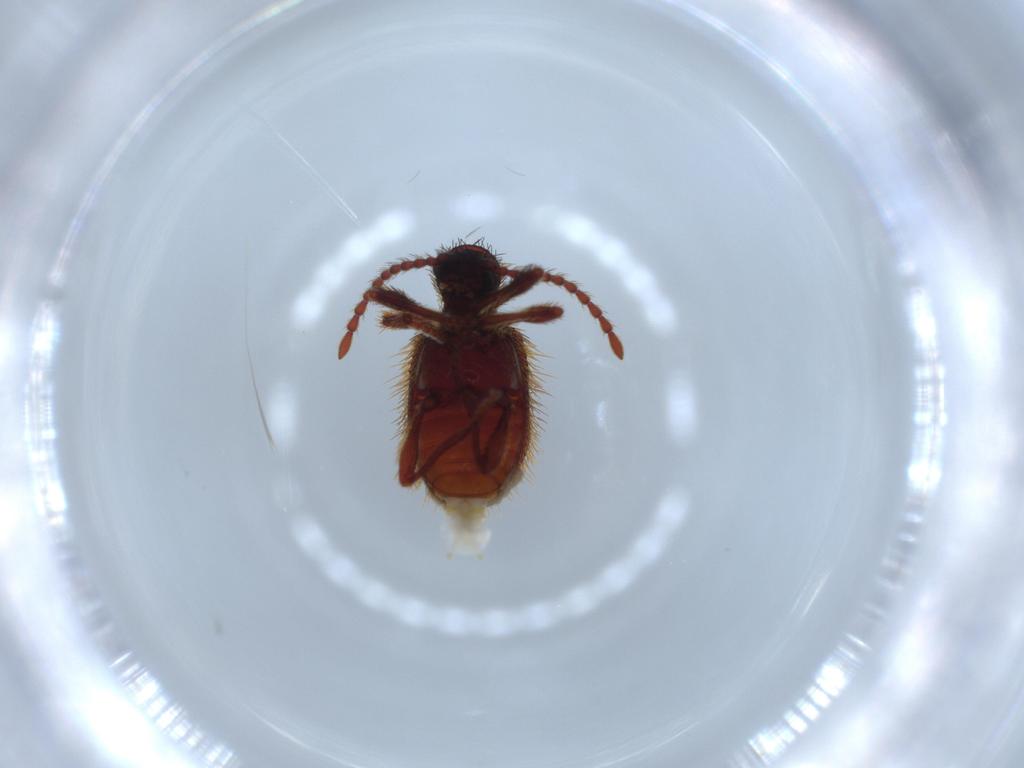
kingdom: Animalia
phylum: Arthropoda
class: Insecta
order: Coleoptera
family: Ptinidae
